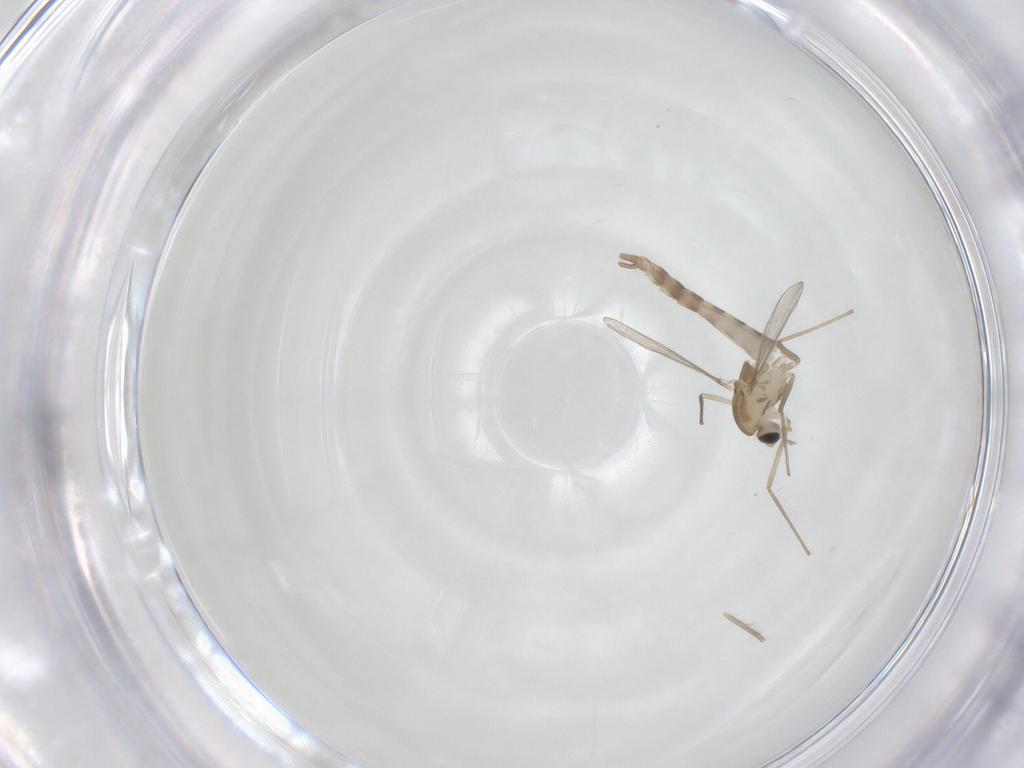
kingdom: Animalia
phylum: Arthropoda
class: Insecta
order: Diptera
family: Chironomidae
